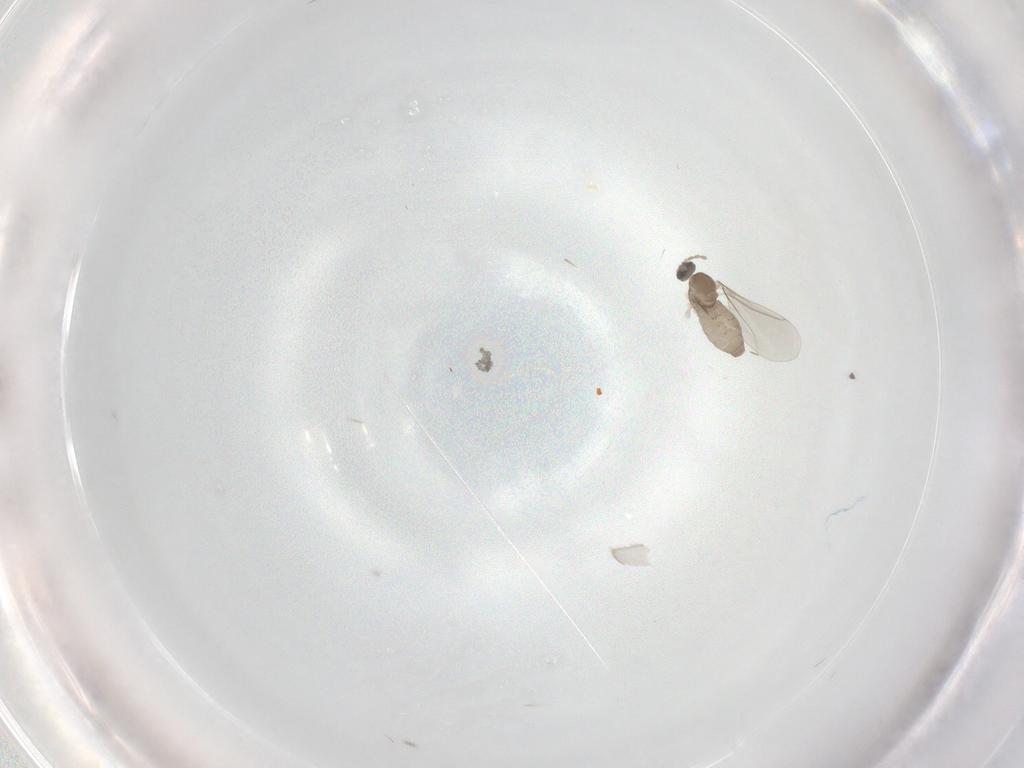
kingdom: Animalia
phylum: Arthropoda
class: Insecta
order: Diptera
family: Cecidomyiidae
